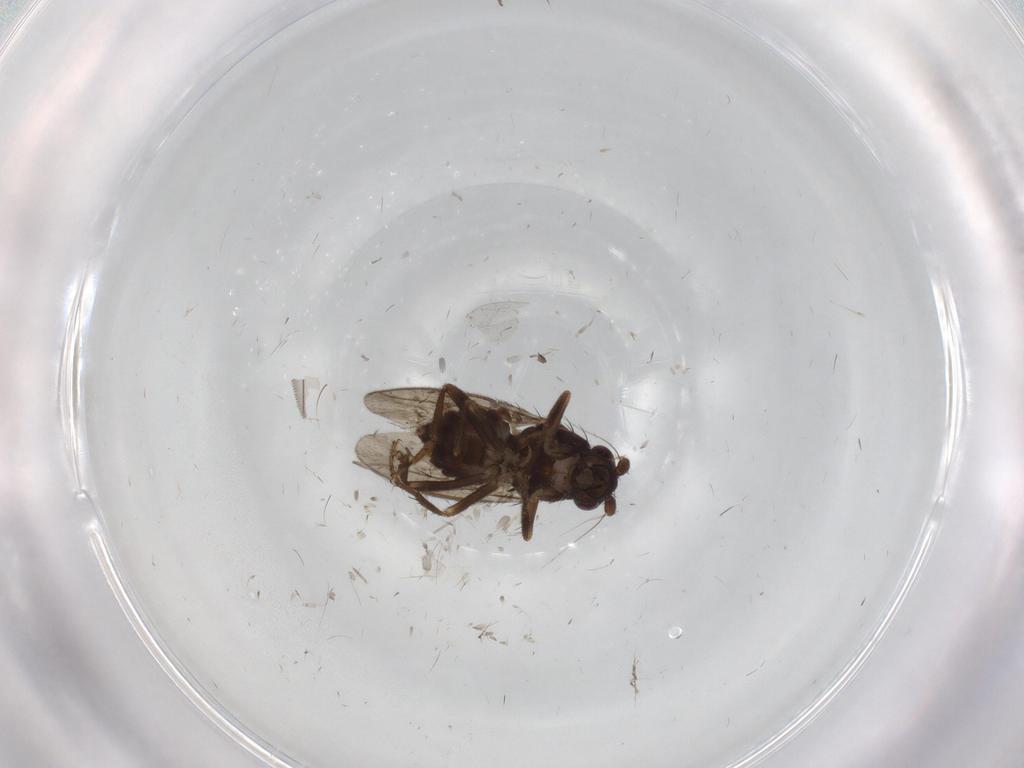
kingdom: Animalia
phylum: Arthropoda
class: Insecta
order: Diptera
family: Sphaeroceridae
